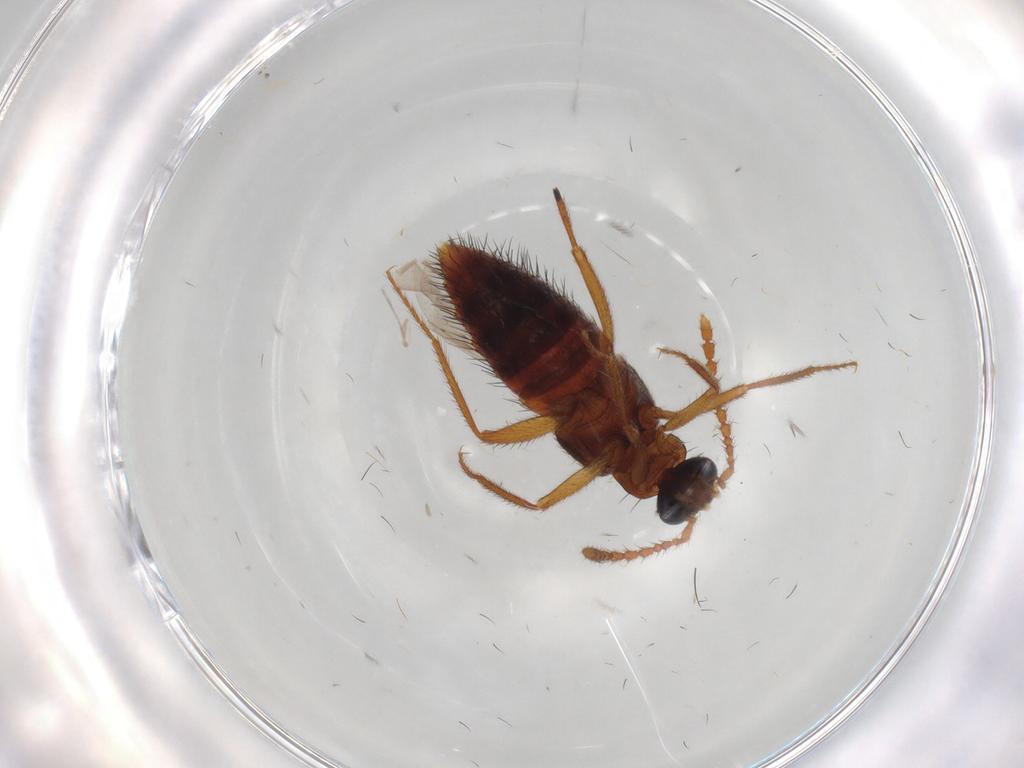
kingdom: Animalia
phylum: Arthropoda
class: Insecta
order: Coleoptera
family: Staphylinidae
